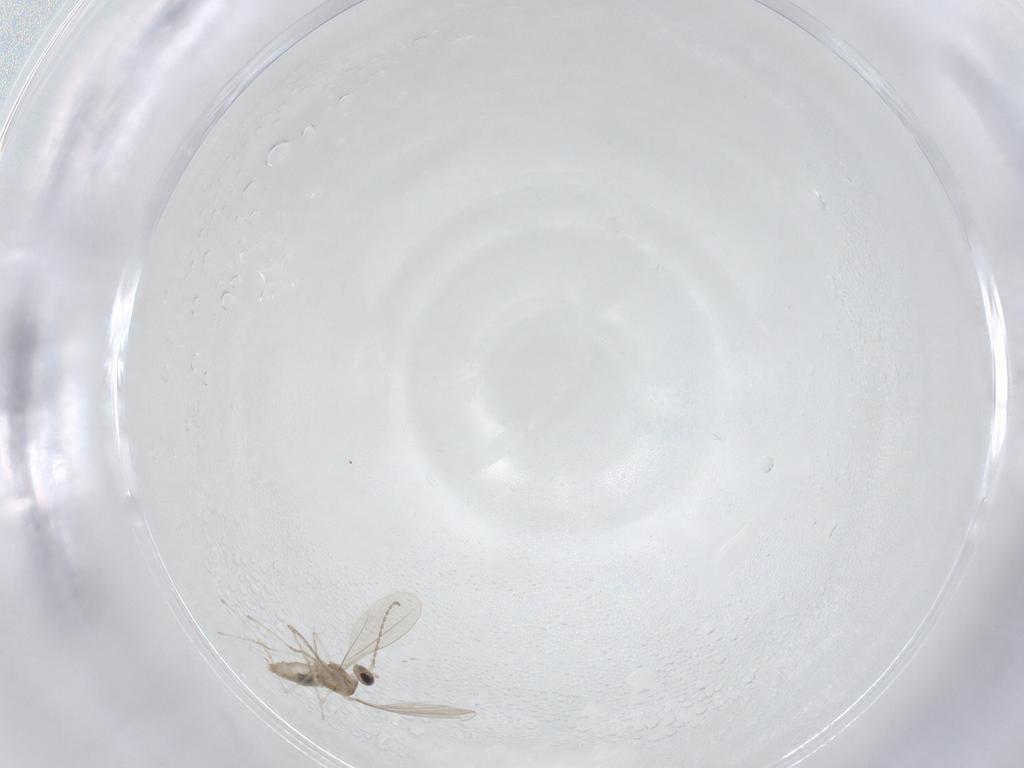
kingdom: Animalia
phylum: Arthropoda
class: Insecta
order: Diptera
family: Cecidomyiidae
